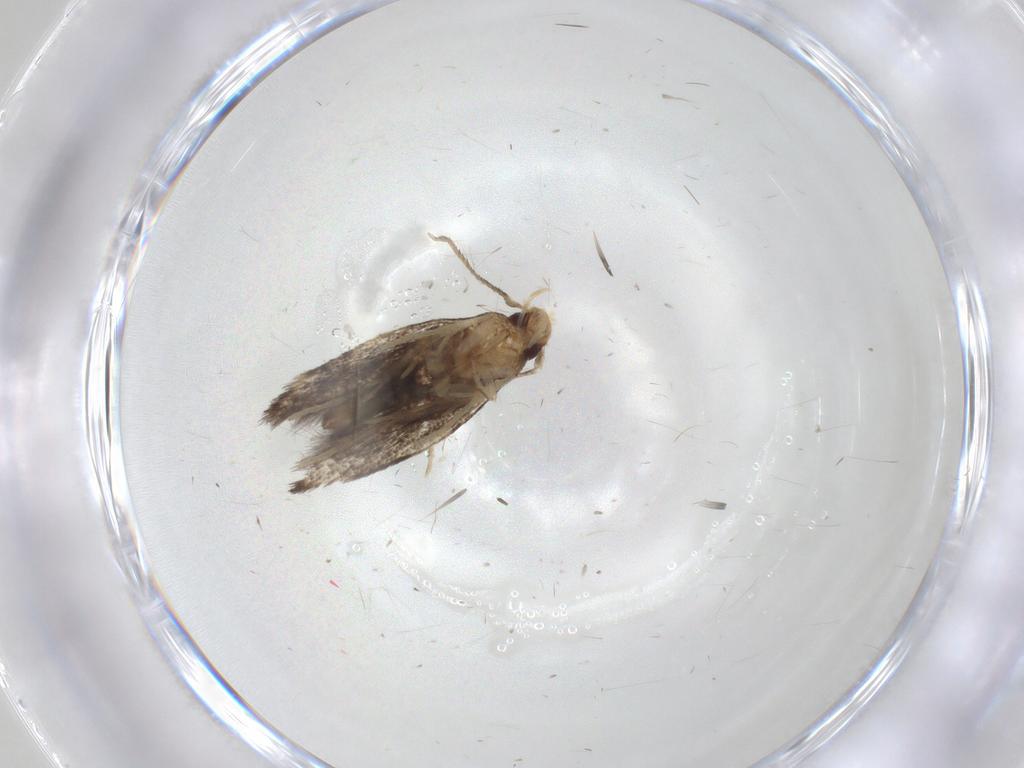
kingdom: Animalia
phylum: Arthropoda
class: Insecta
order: Lepidoptera
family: Gelechiidae
